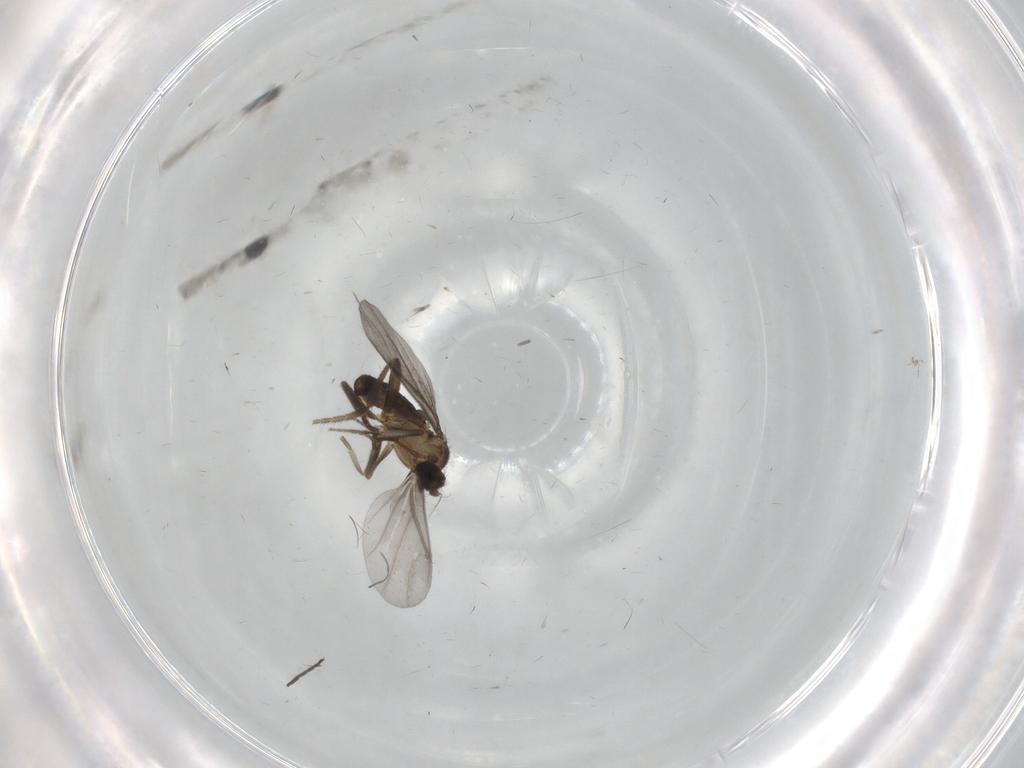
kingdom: Animalia
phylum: Arthropoda
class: Insecta
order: Diptera
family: Phoridae
